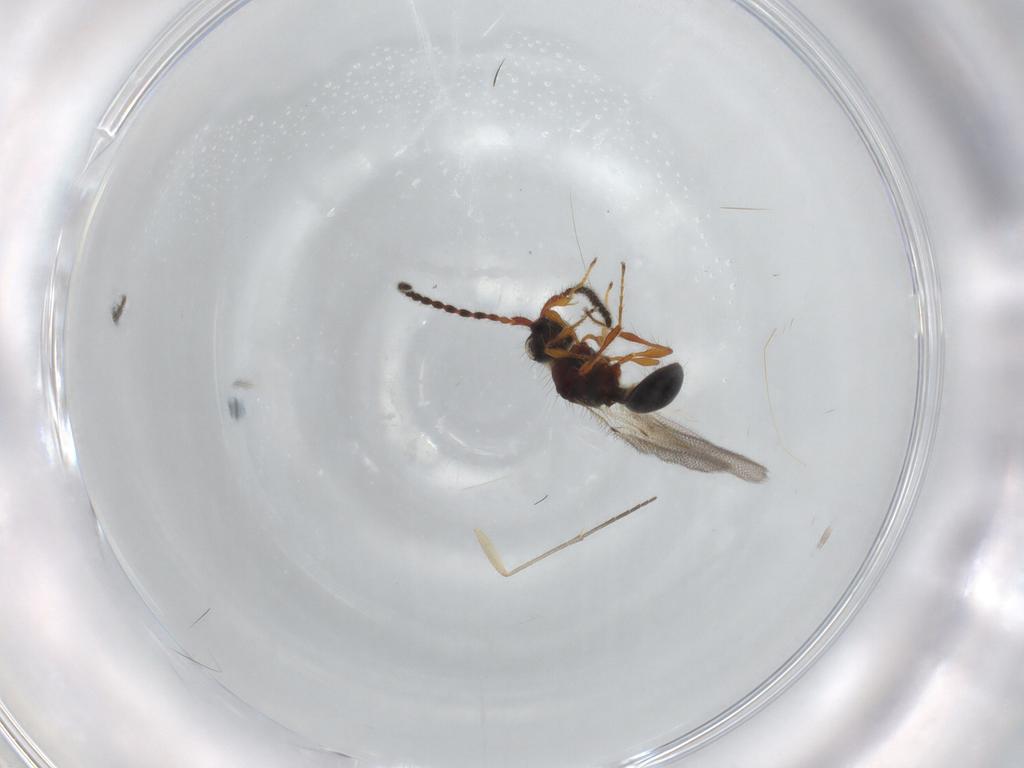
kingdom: Animalia
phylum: Arthropoda
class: Insecta
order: Hymenoptera
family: Diapriidae
